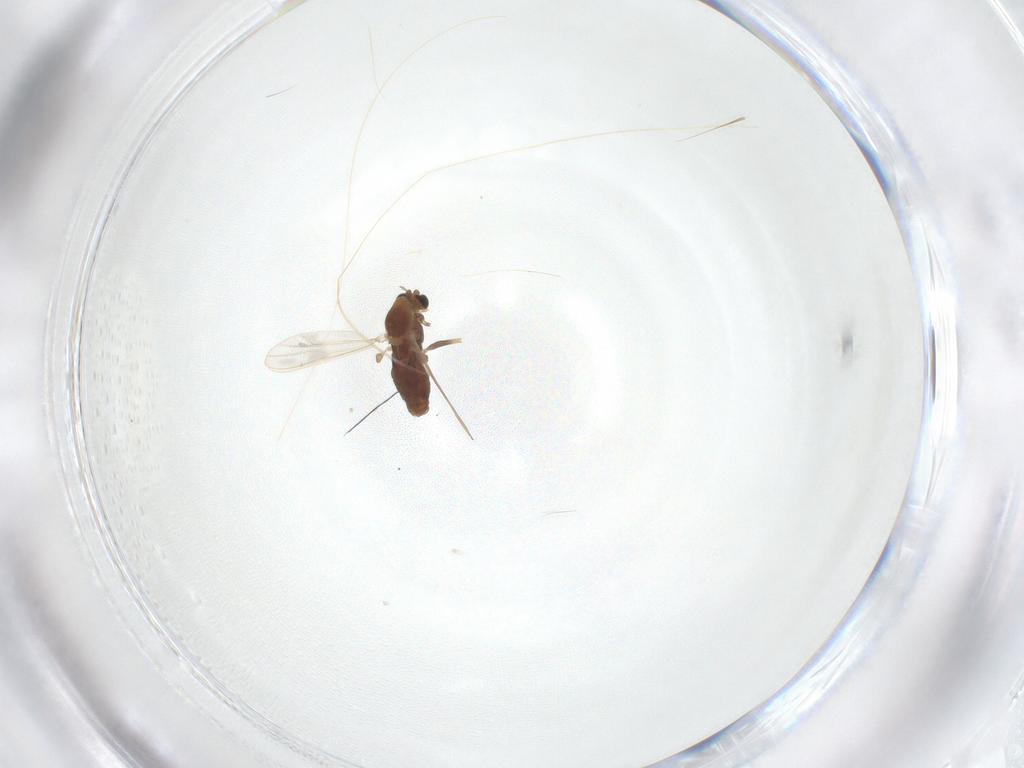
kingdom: Animalia
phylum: Arthropoda
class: Insecta
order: Diptera
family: Chironomidae
